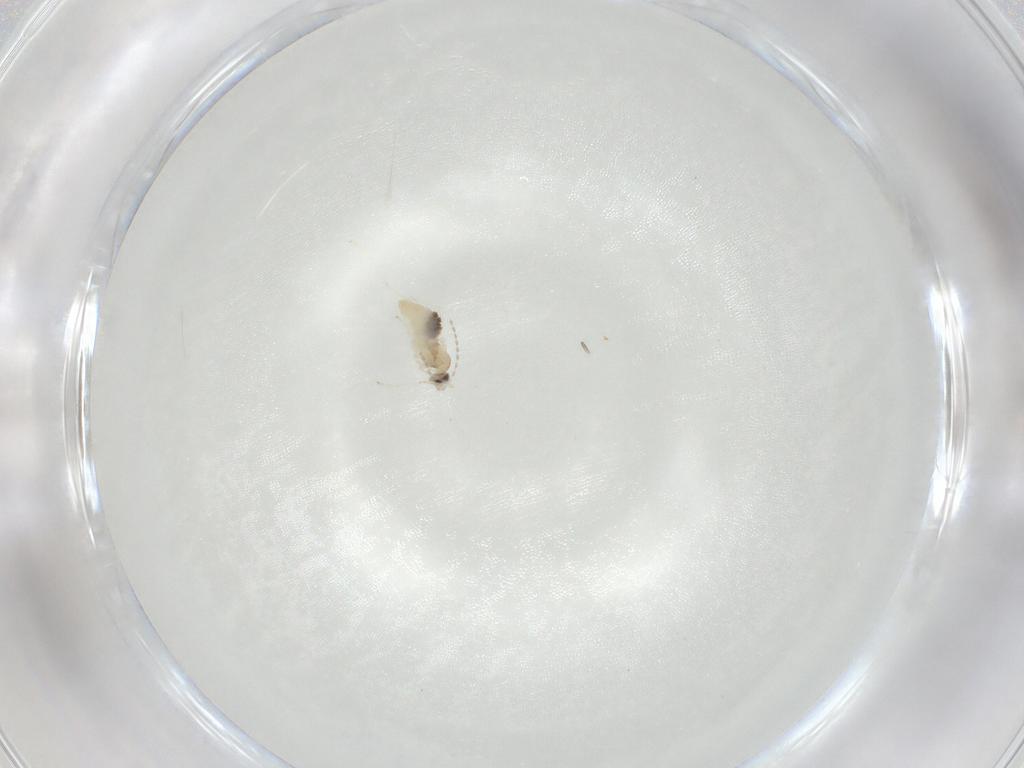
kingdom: Animalia
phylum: Arthropoda
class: Insecta
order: Diptera
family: Cecidomyiidae
